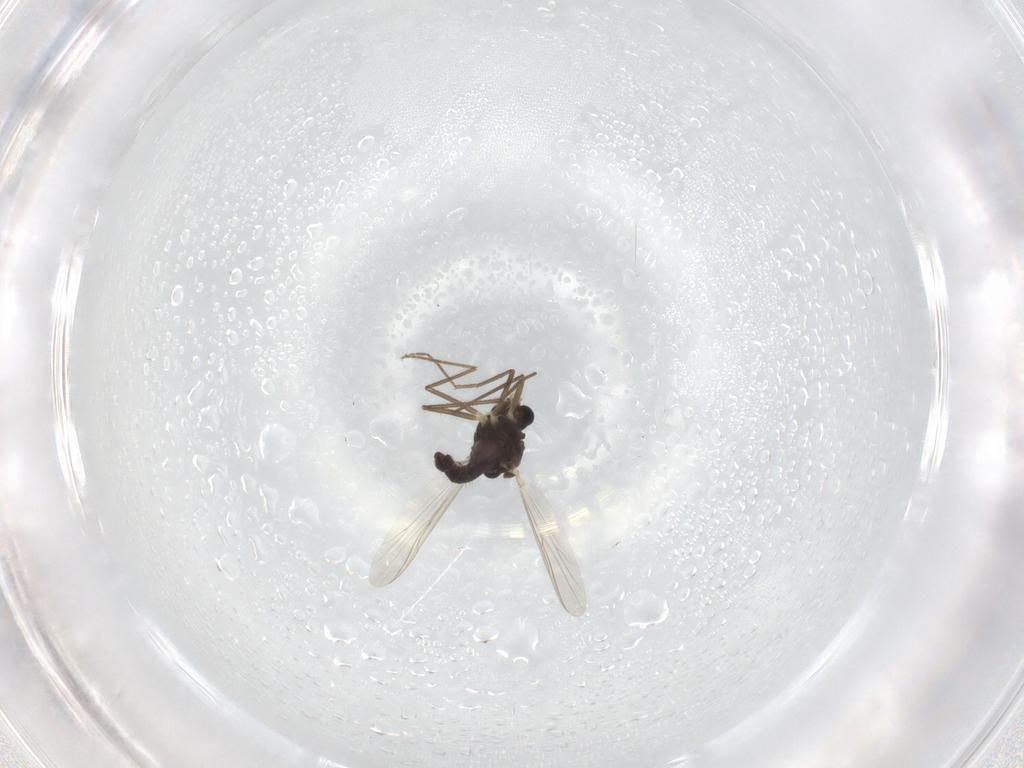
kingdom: Animalia
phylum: Arthropoda
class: Insecta
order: Diptera
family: Chironomidae
